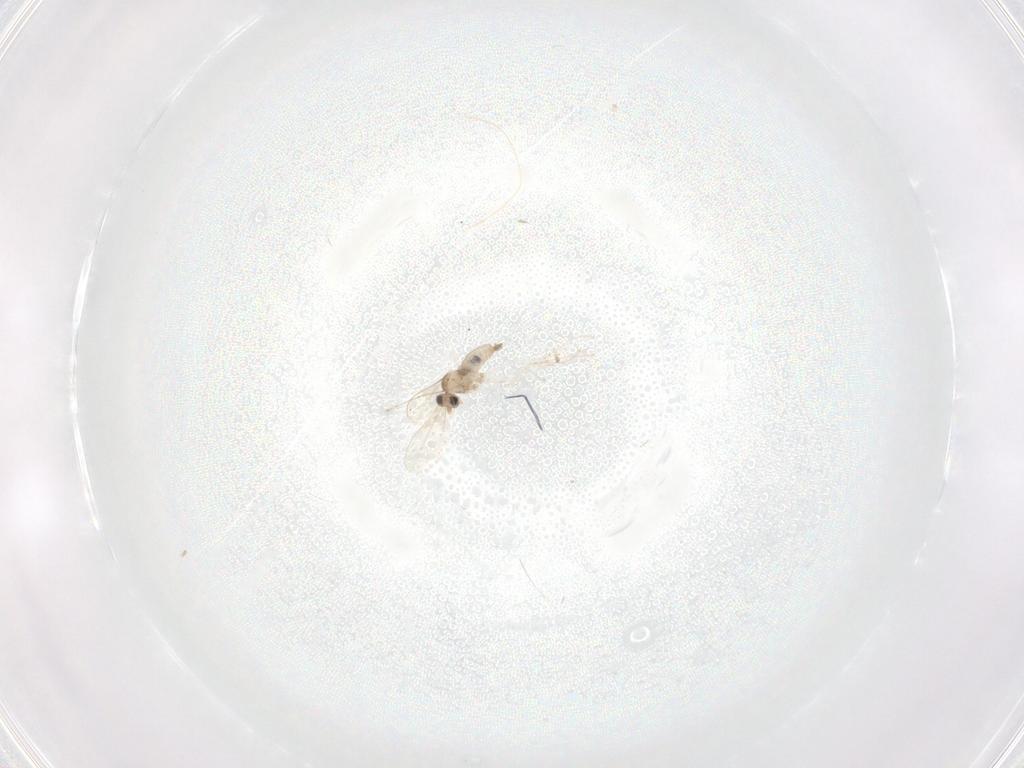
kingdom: Animalia
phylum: Arthropoda
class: Insecta
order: Diptera
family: Cecidomyiidae
